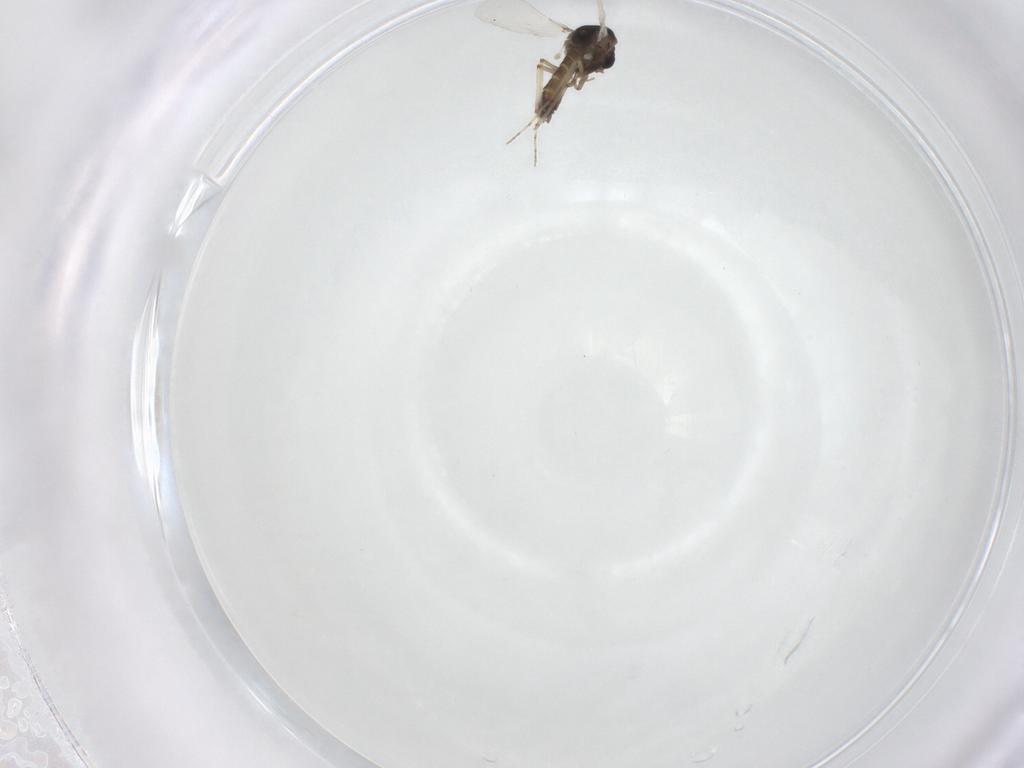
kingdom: Animalia
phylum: Arthropoda
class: Insecta
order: Diptera
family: Chironomidae
